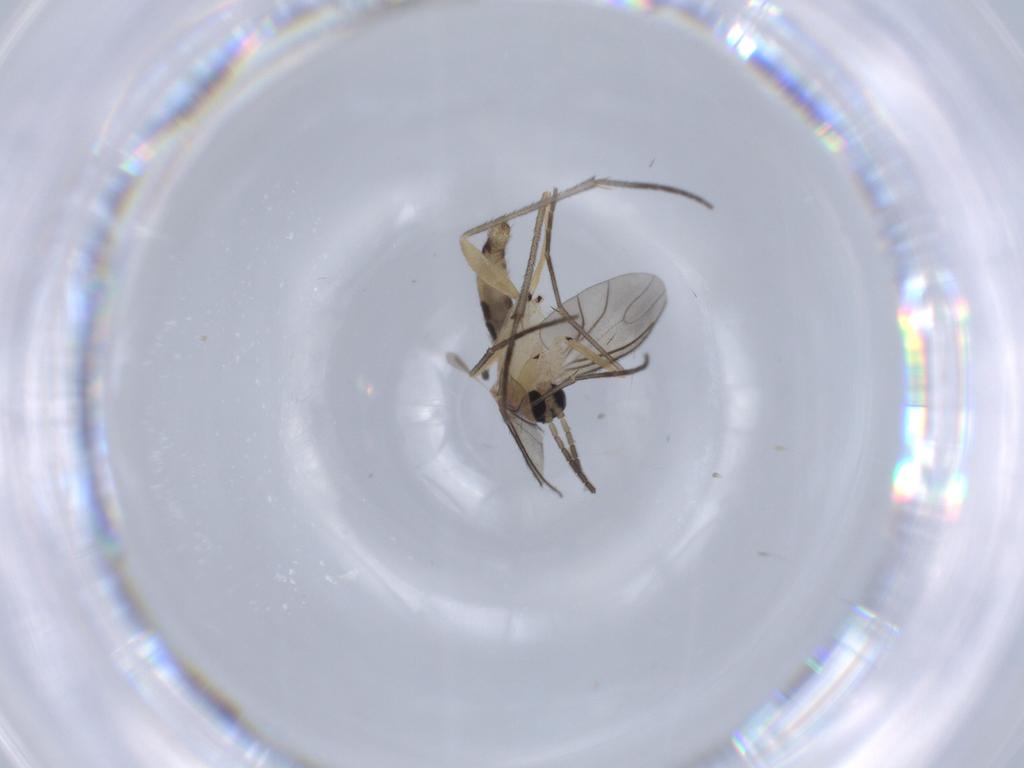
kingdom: Animalia
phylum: Arthropoda
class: Insecta
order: Diptera
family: Sciaridae
